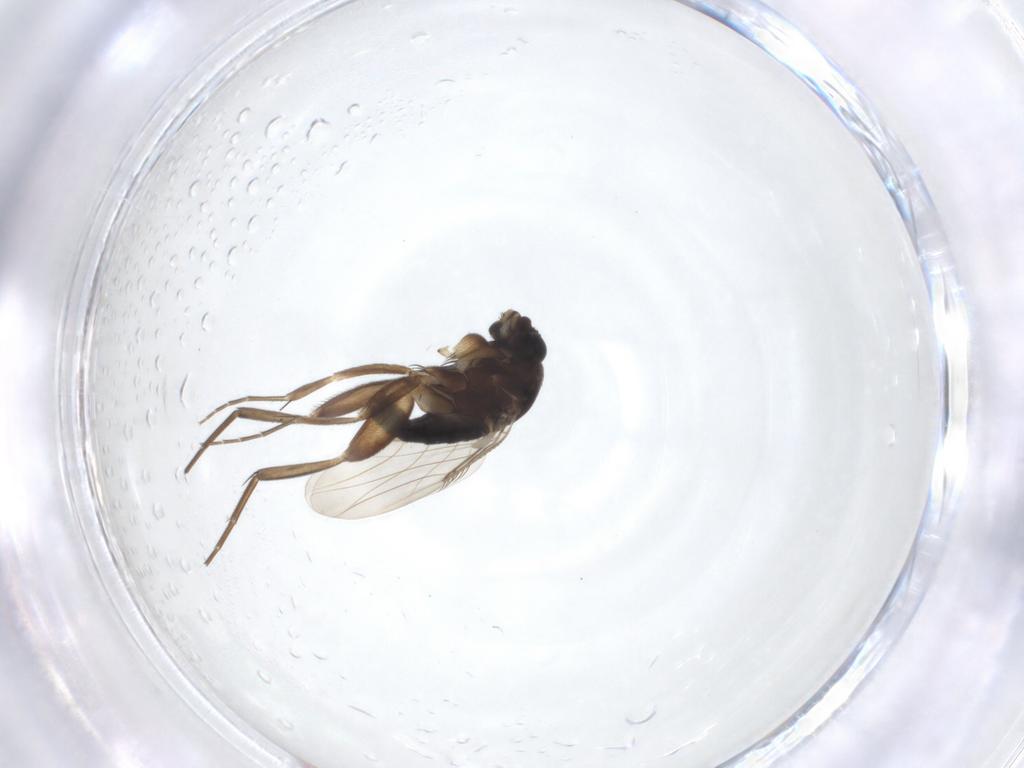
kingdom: Animalia
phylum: Arthropoda
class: Insecta
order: Diptera
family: Phoridae
